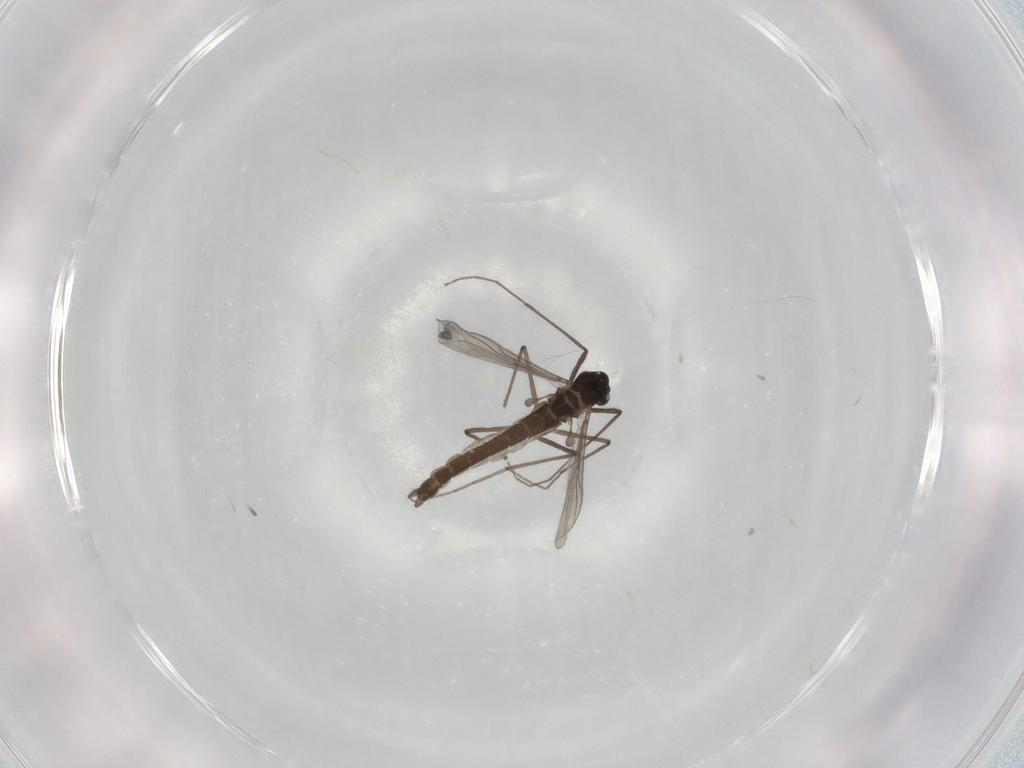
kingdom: Animalia
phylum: Arthropoda
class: Insecta
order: Diptera
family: Chironomidae
